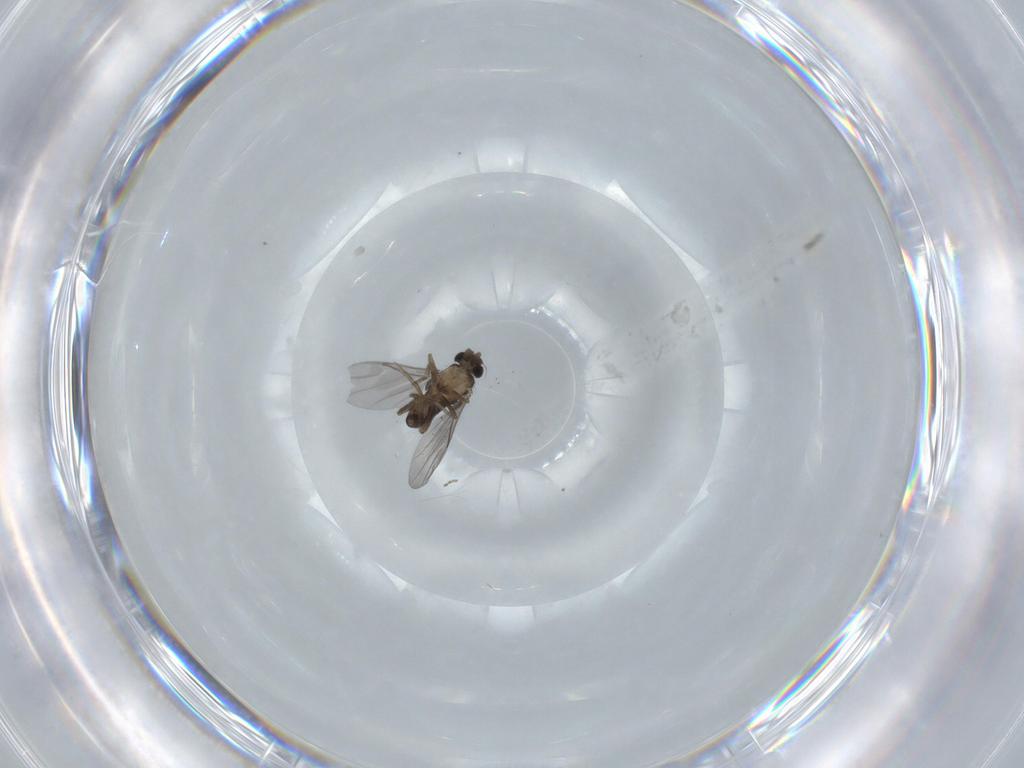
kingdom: Animalia
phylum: Arthropoda
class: Insecta
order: Diptera
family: Sciaridae
